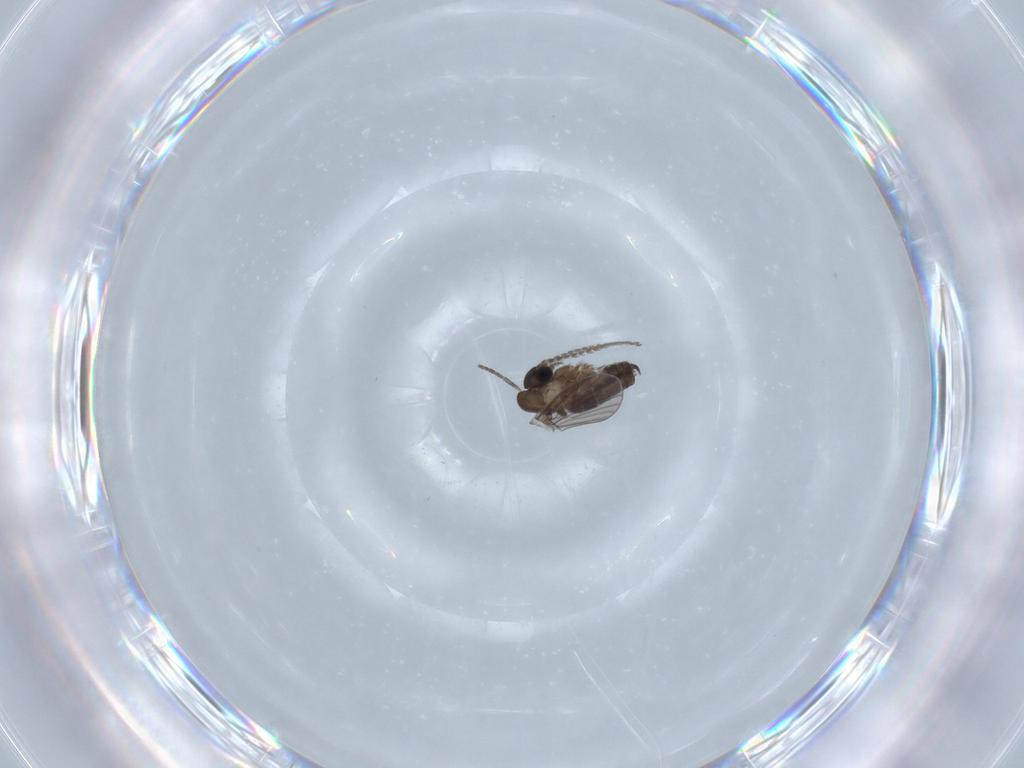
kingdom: Animalia
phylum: Arthropoda
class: Insecta
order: Diptera
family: Psychodidae
